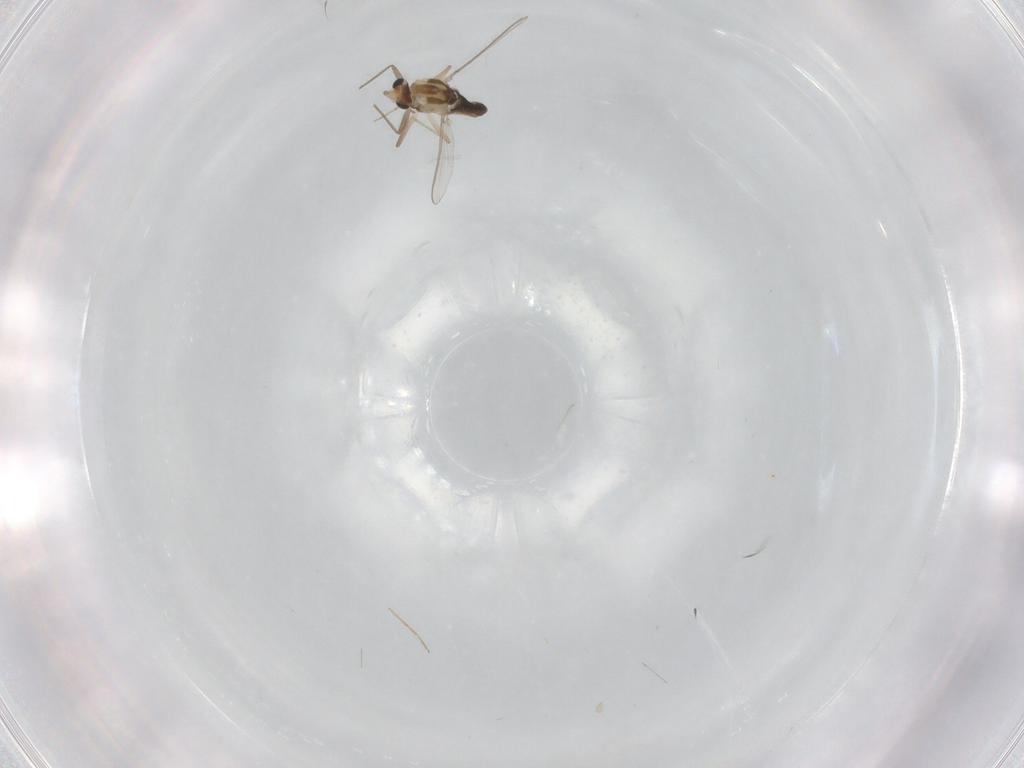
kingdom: Animalia
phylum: Arthropoda
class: Insecta
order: Diptera
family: Chironomidae
